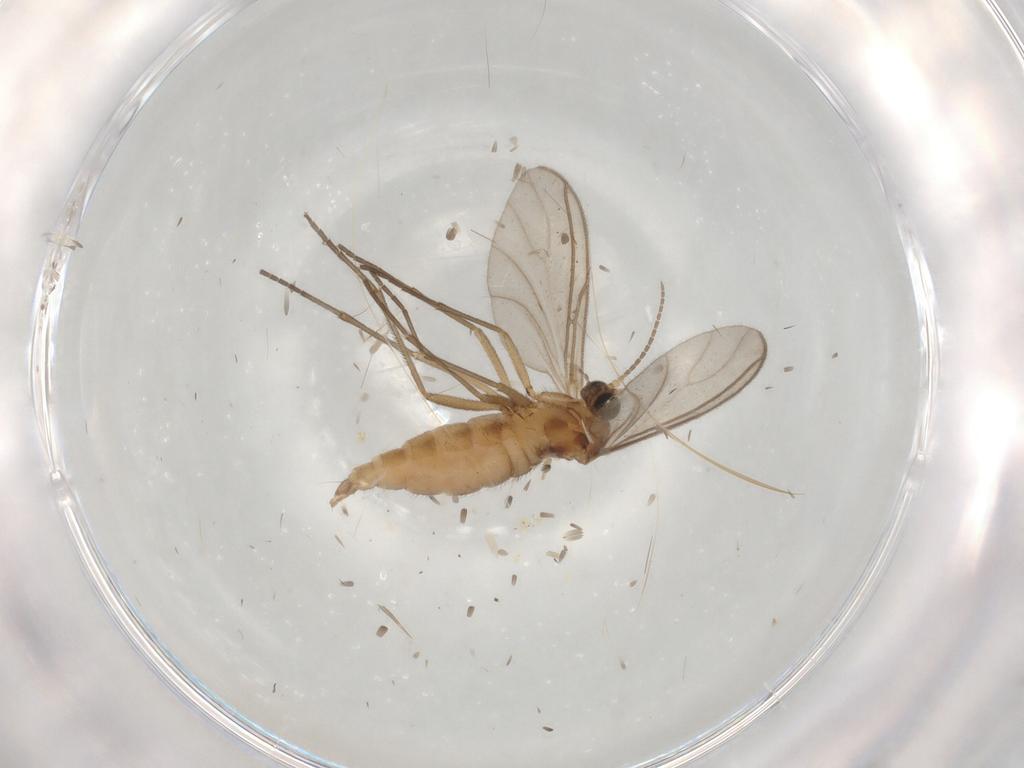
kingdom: Animalia
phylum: Arthropoda
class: Insecta
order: Diptera
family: Sciaridae
